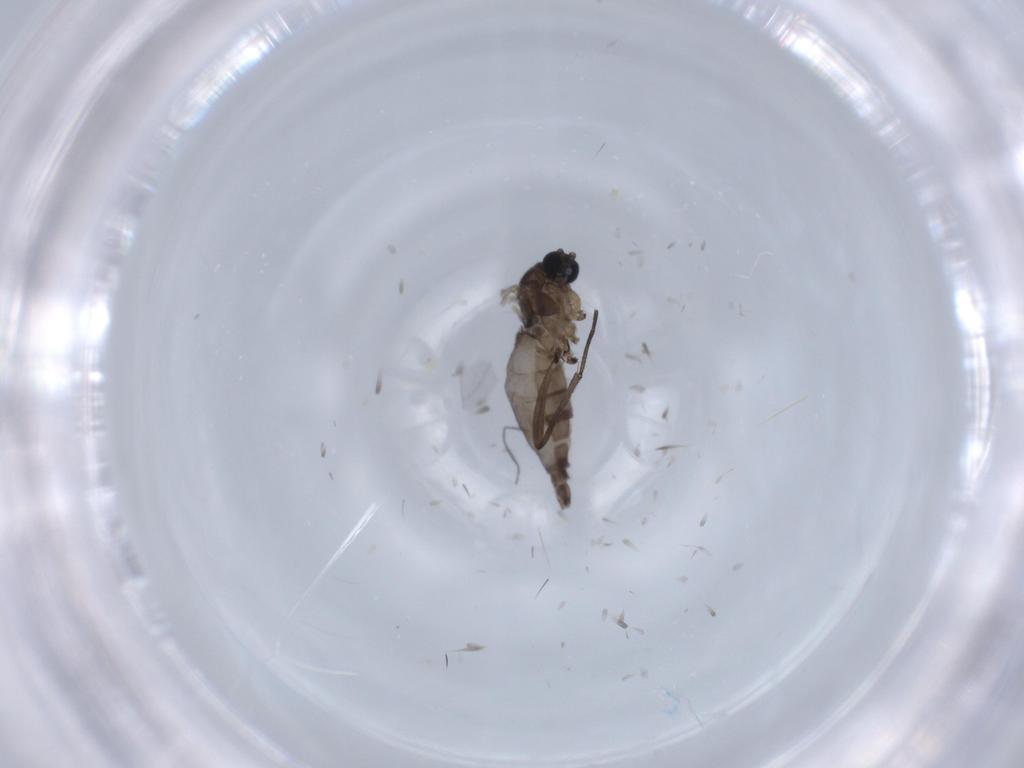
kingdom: Animalia
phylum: Arthropoda
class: Insecta
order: Diptera
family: Sciaridae
